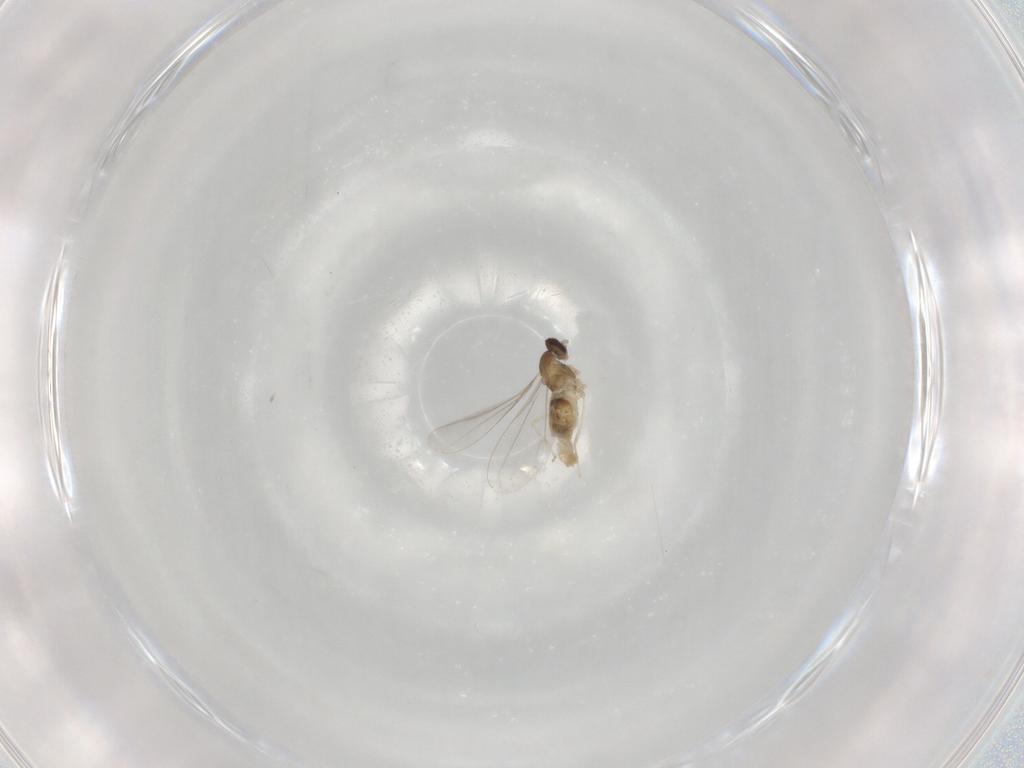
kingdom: Animalia
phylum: Arthropoda
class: Insecta
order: Diptera
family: Cecidomyiidae
